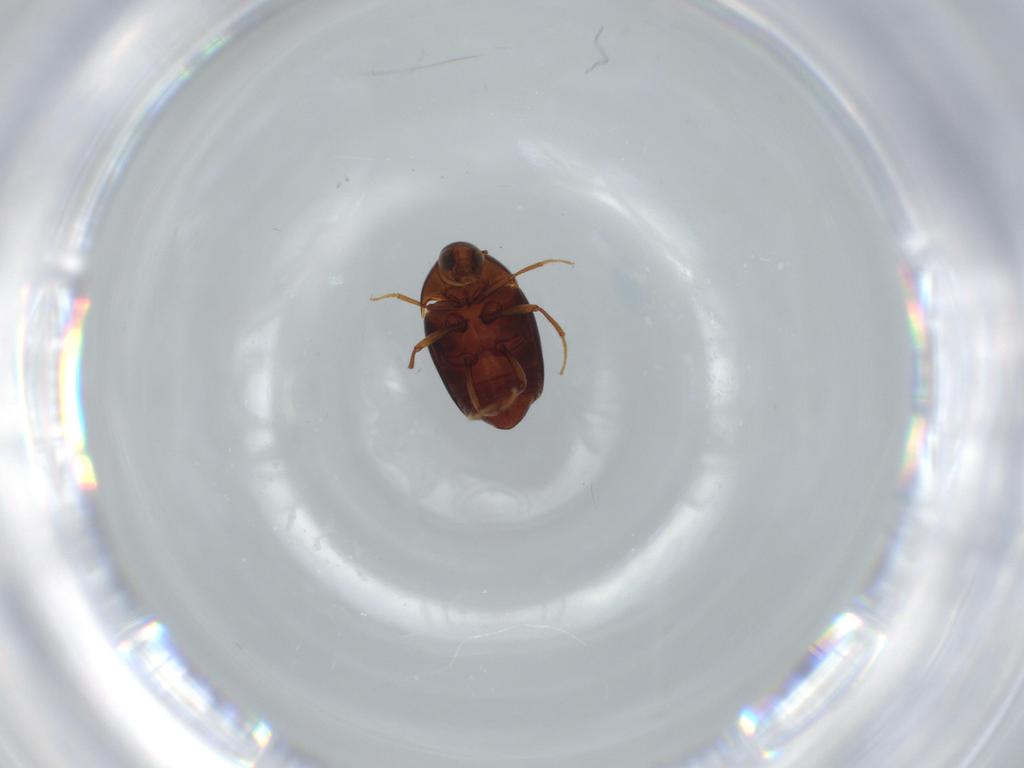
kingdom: Animalia
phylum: Arthropoda
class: Insecta
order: Coleoptera
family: Staphylinidae
